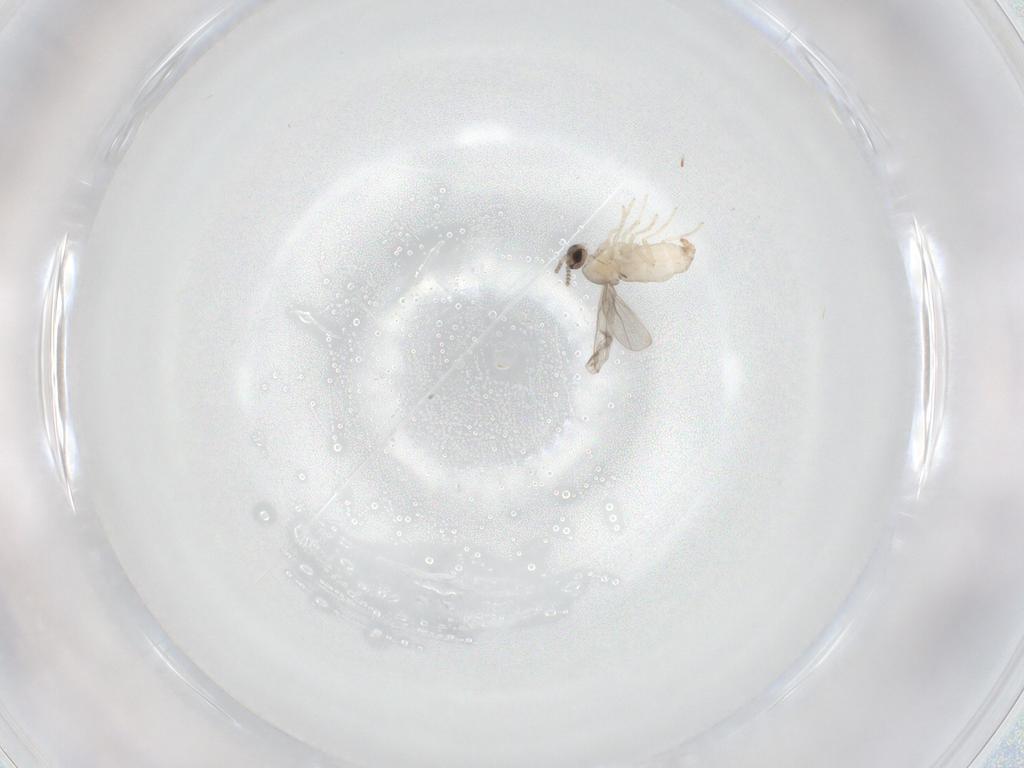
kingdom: Animalia
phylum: Arthropoda
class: Insecta
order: Diptera
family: Cecidomyiidae
